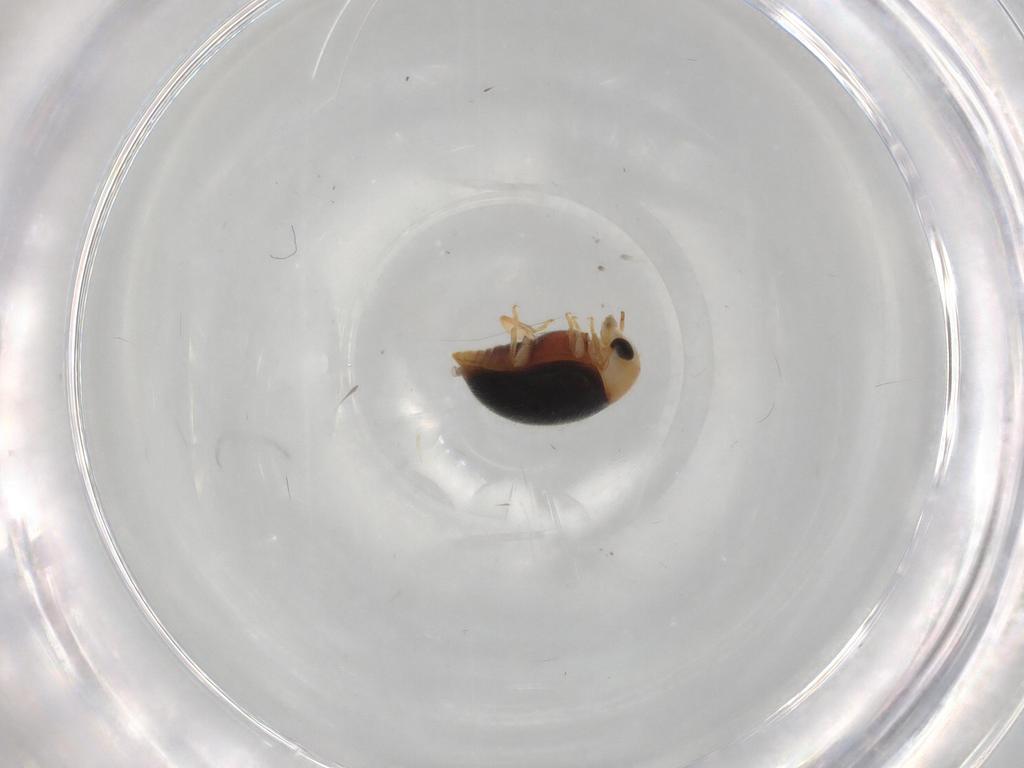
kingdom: Animalia
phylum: Arthropoda
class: Insecta
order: Coleoptera
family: Coccinellidae
